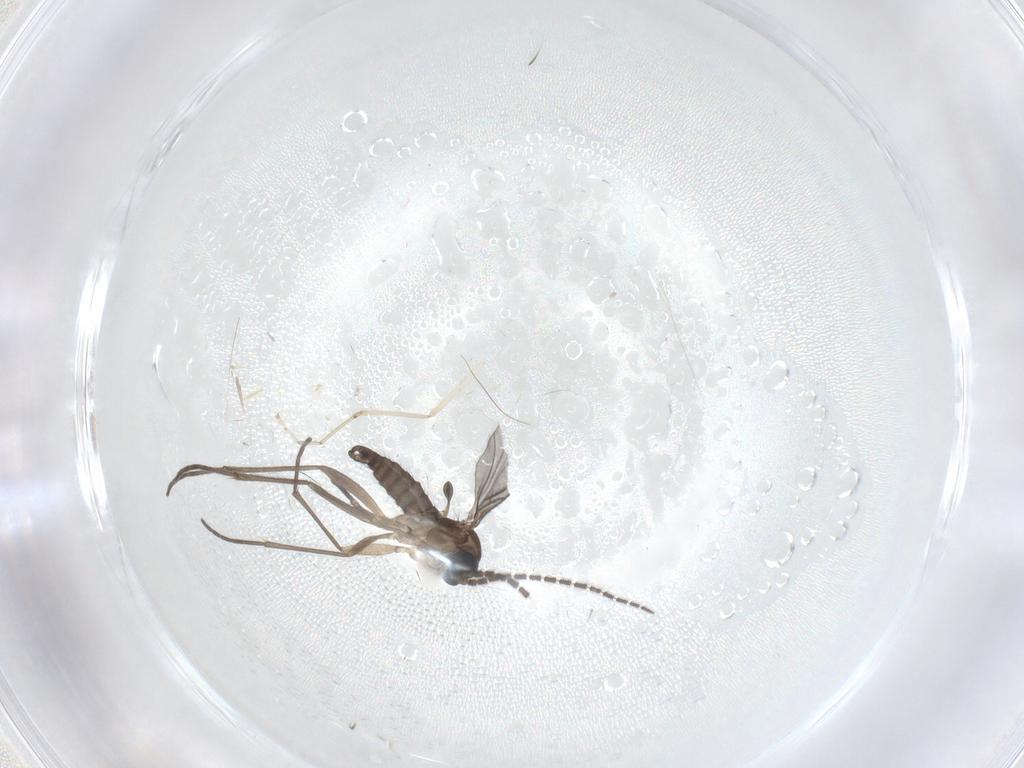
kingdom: Animalia
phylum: Arthropoda
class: Insecta
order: Diptera
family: Sciaridae
